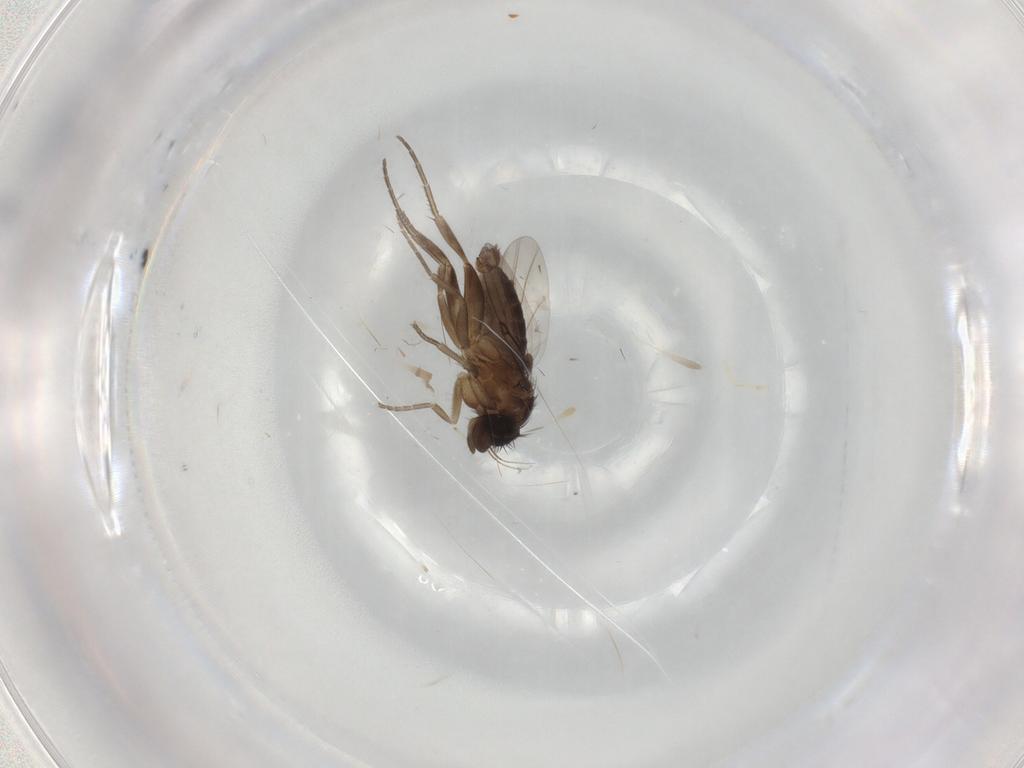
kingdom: Animalia
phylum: Arthropoda
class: Insecta
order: Diptera
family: Phoridae
